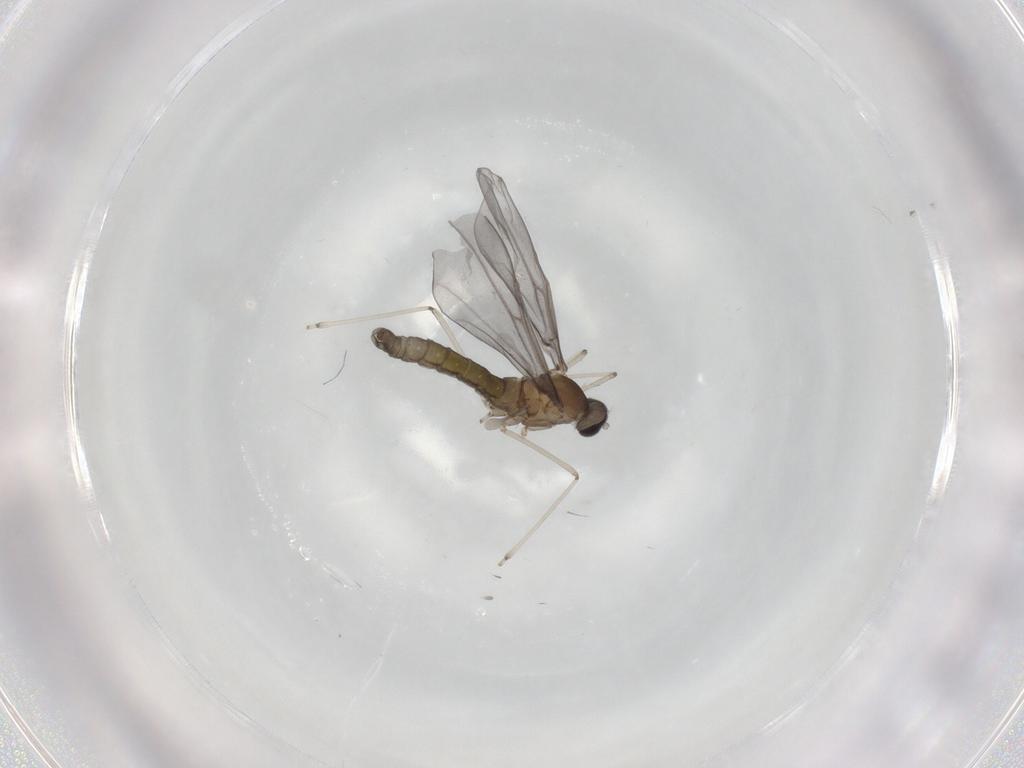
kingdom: Animalia
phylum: Arthropoda
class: Insecta
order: Diptera
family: Cecidomyiidae
